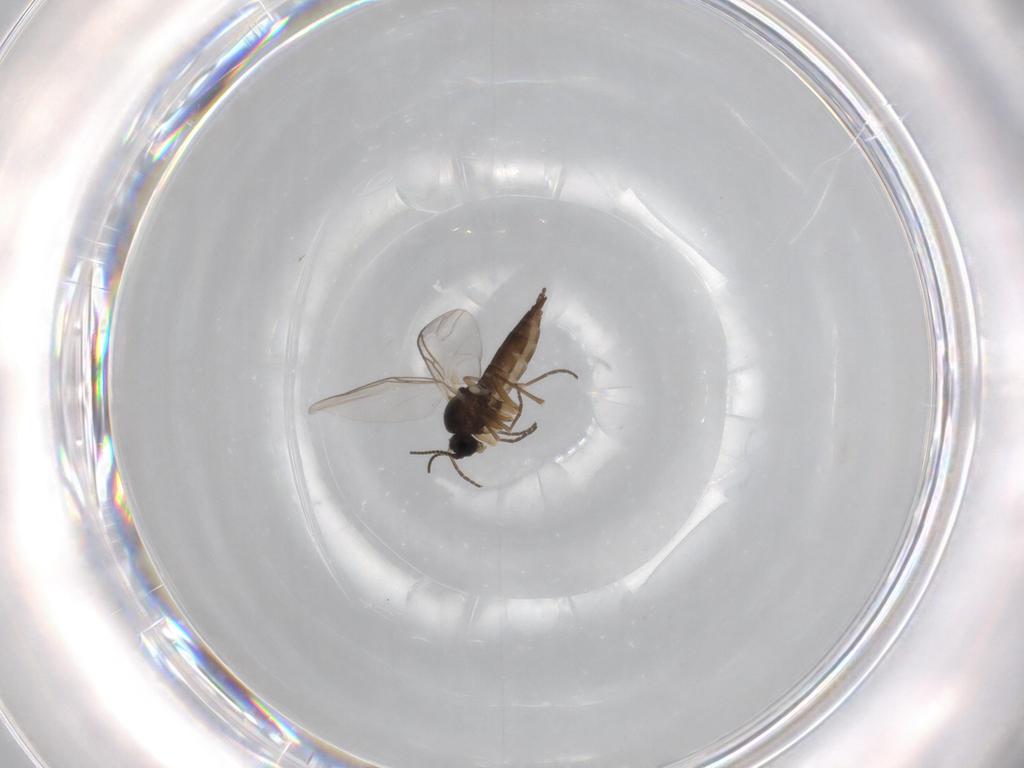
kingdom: Animalia
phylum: Arthropoda
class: Insecta
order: Diptera
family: Sciaridae
